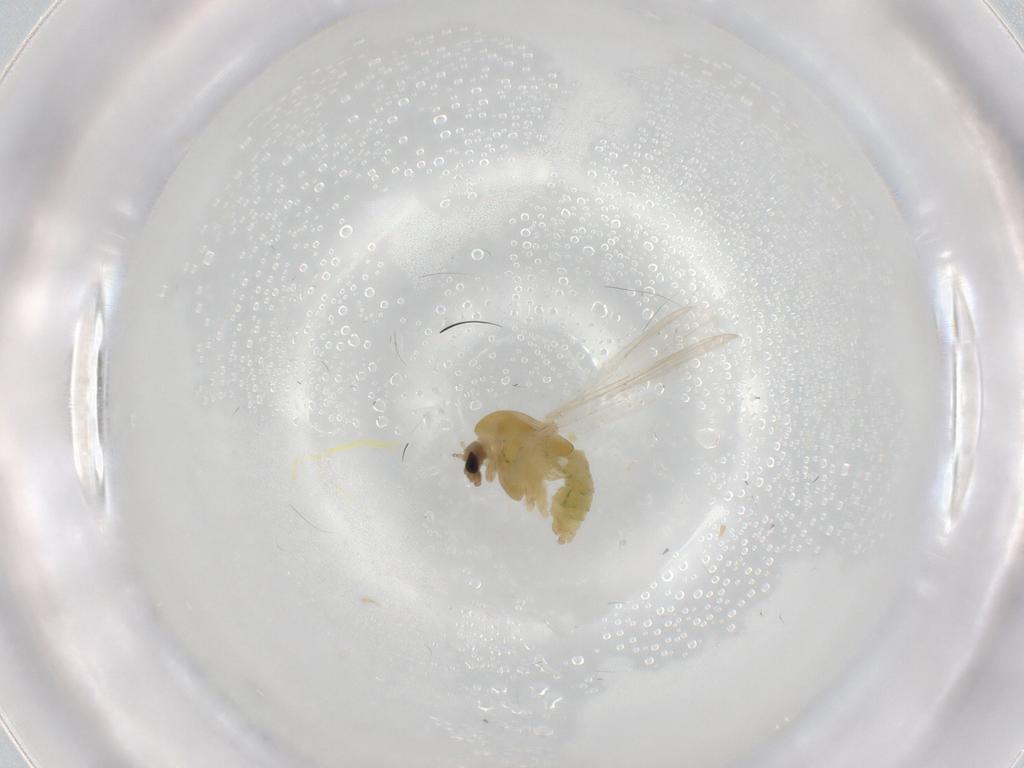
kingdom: Animalia
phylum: Arthropoda
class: Insecta
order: Diptera
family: Chironomidae
